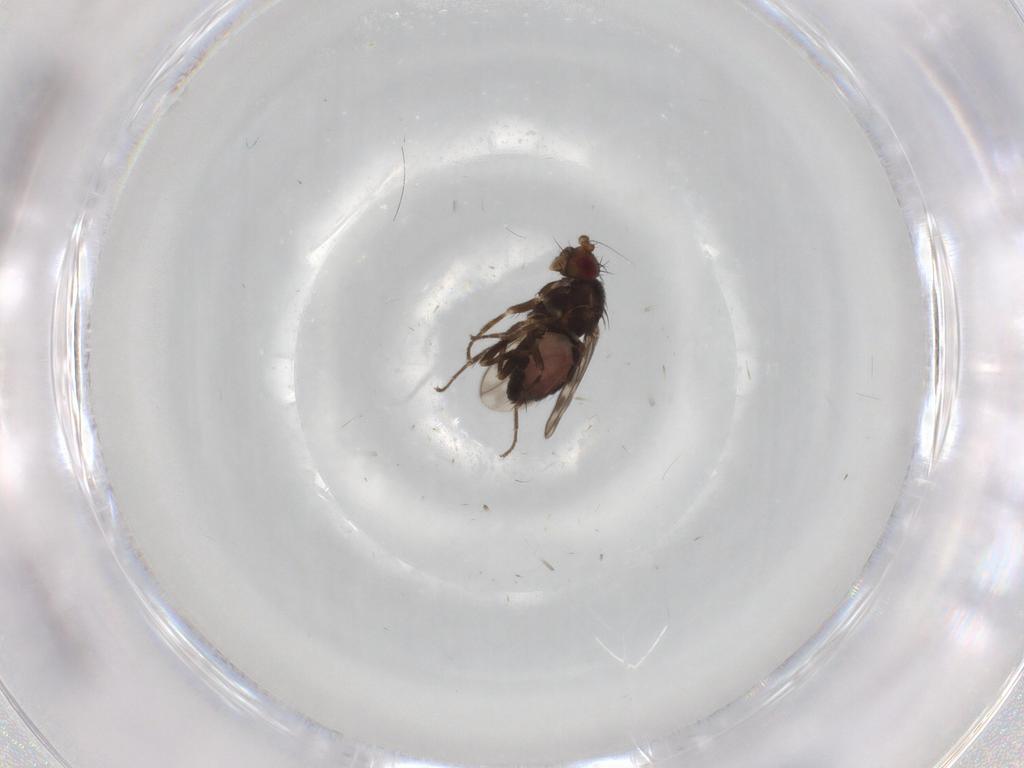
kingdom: Animalia
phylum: Arthropoda
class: Insecta
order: Diptera
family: Sphaeroceridae
